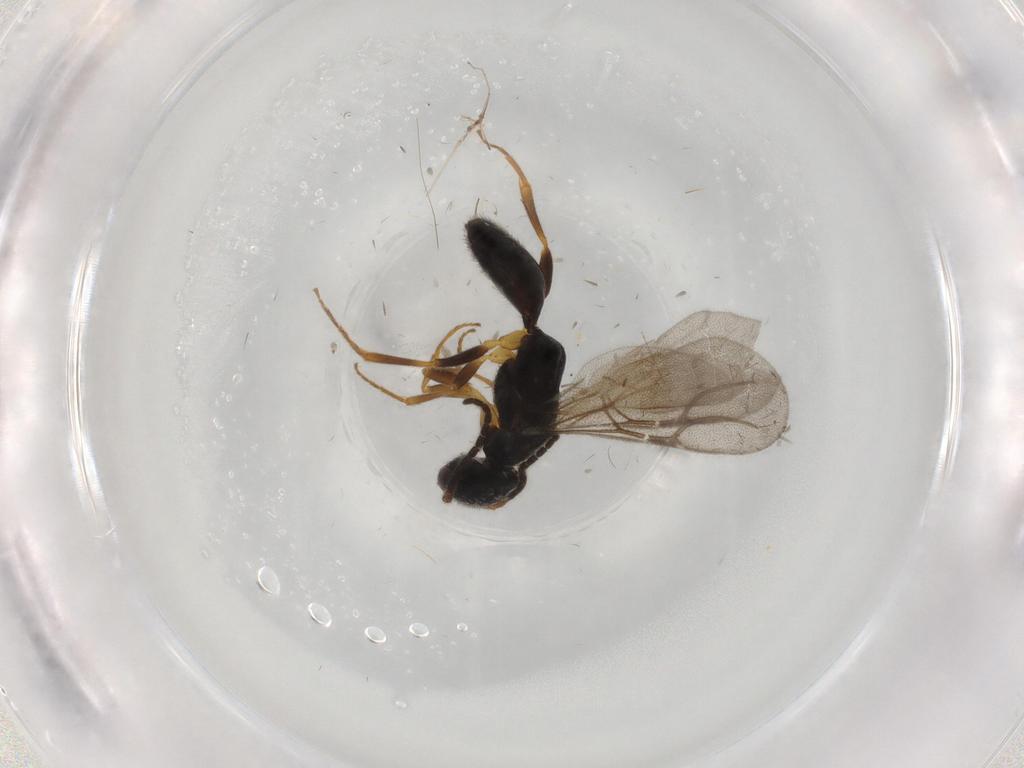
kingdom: Animalia
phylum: Arthropoda
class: Insecta
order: Hymenoptera
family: Bethylidae
